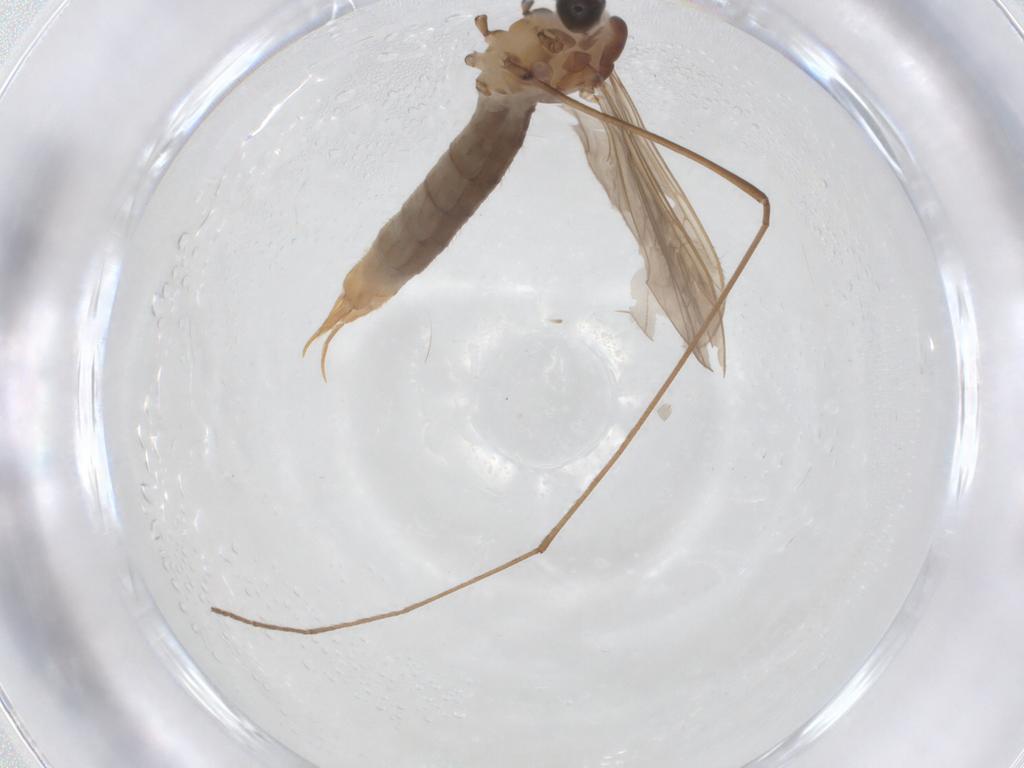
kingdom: Animalia
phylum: Arthropoda
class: Insecta
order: Diptera
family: Limoniidae
